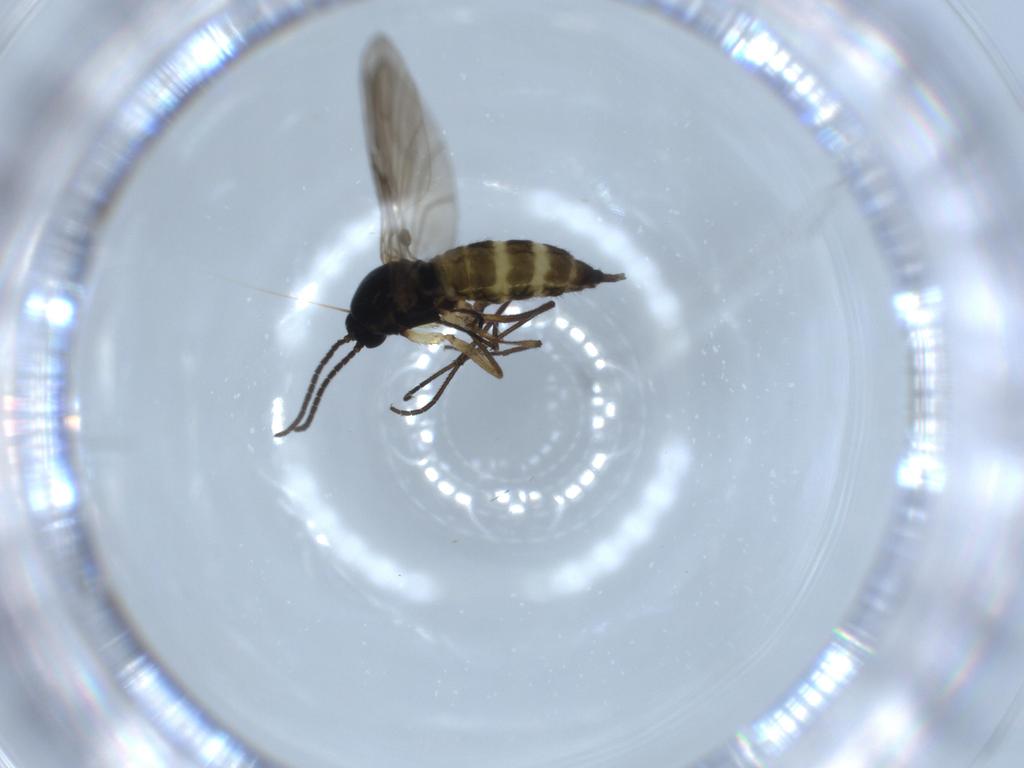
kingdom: Animalia
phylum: Arthropoda
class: Insecta
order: Diptera
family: Sciaridae
